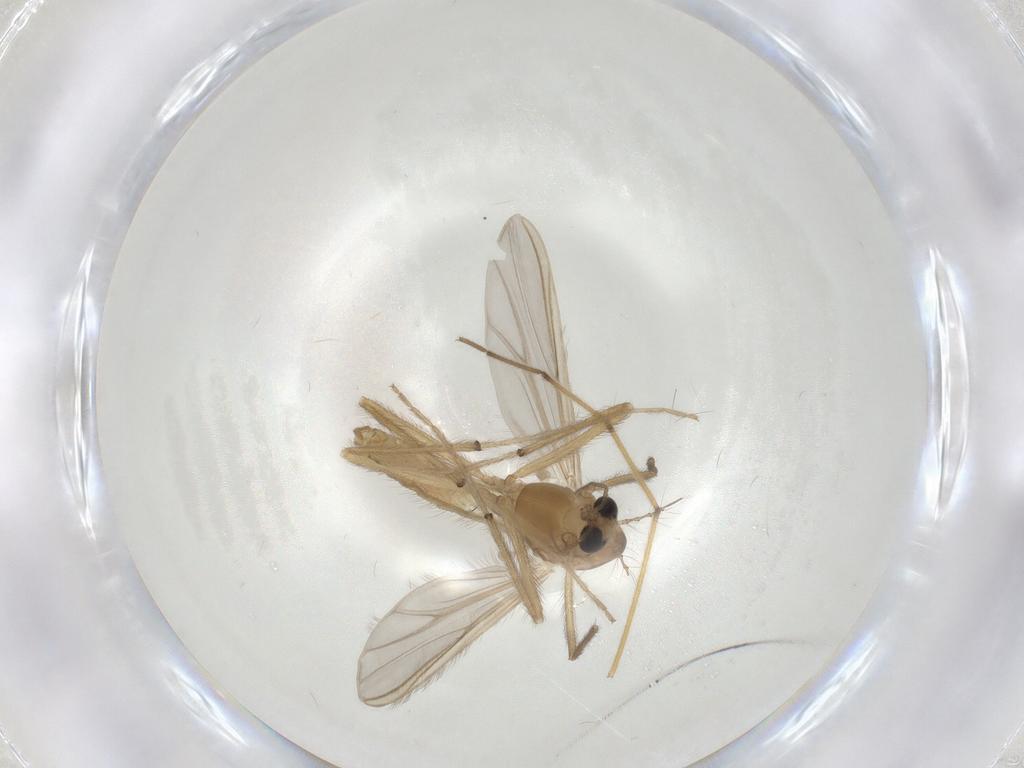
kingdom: Animalia
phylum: Arthropoda
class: Insecta
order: Diptera
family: Chironomidae
